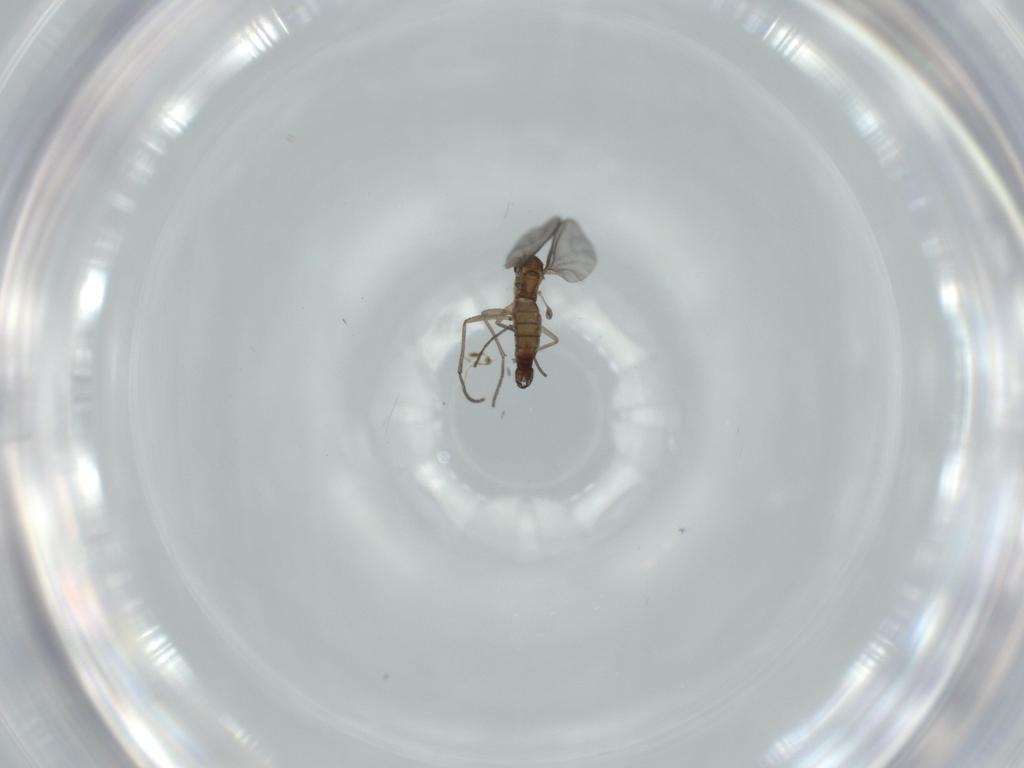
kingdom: Animalia
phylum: Arthropoda
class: Insecta
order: Diptera
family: Sciaridae
